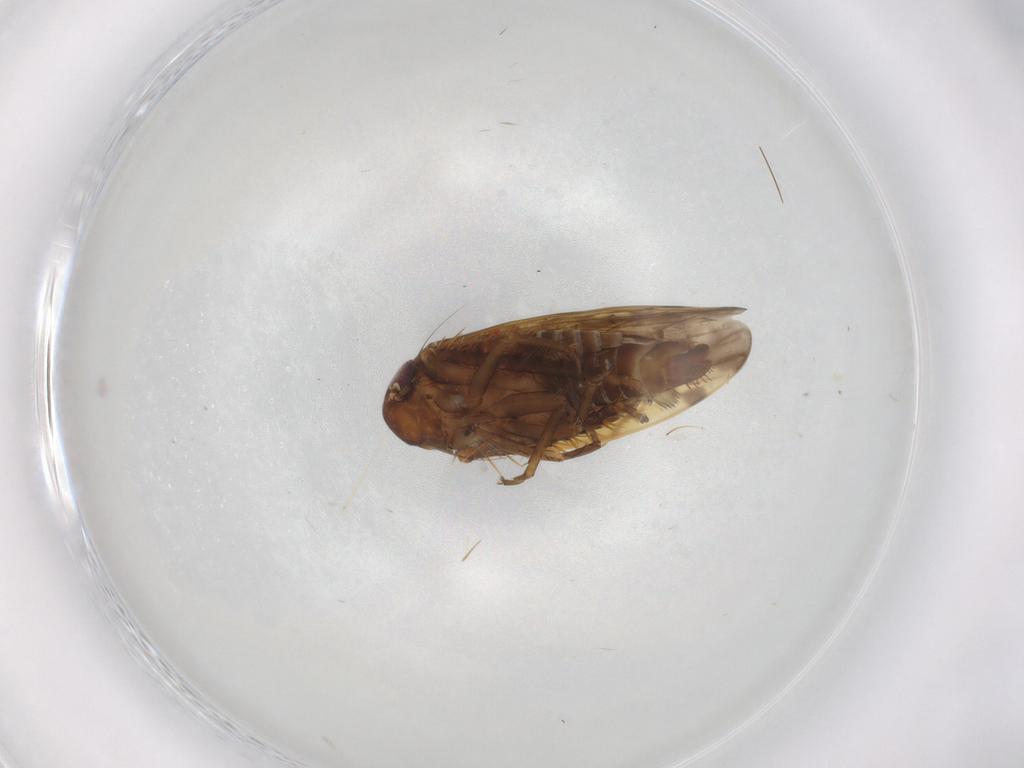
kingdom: Animalia
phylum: Arthropoda
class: Insecta
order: Hemiptera
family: Cicadellidae
